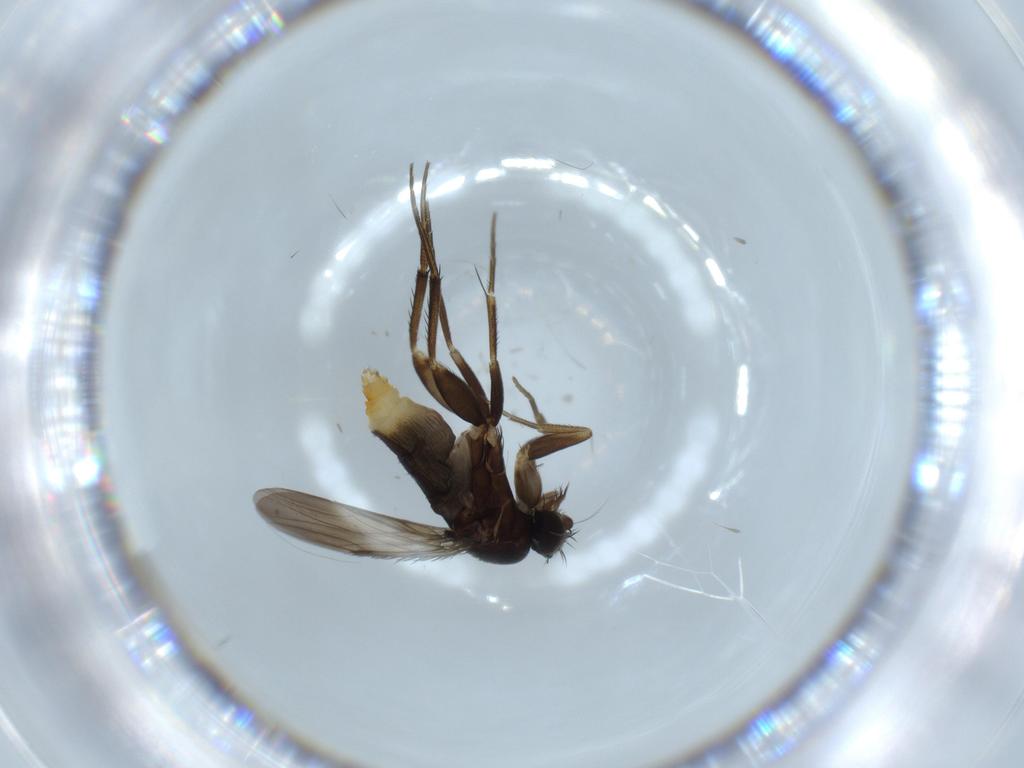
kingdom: Animalia
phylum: Arthropoda
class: Insecta
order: Diptera
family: Phoridae
